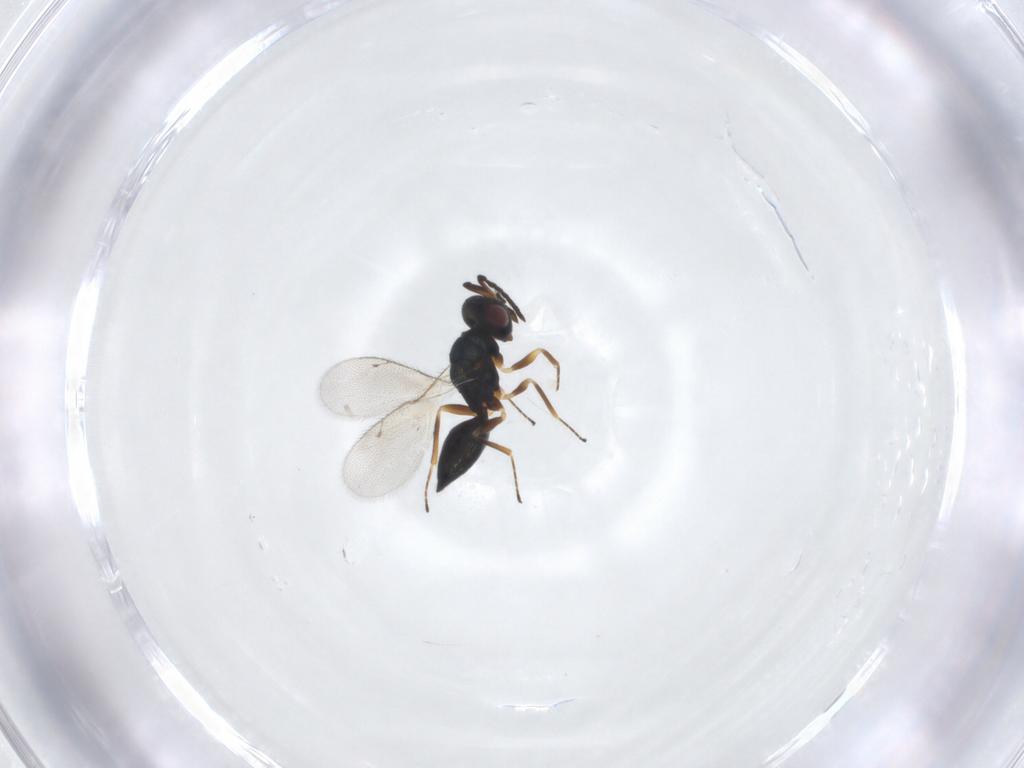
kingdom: Animalia
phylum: Arthropoda
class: Insecta
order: Hymenoptera
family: Pteromalidae
